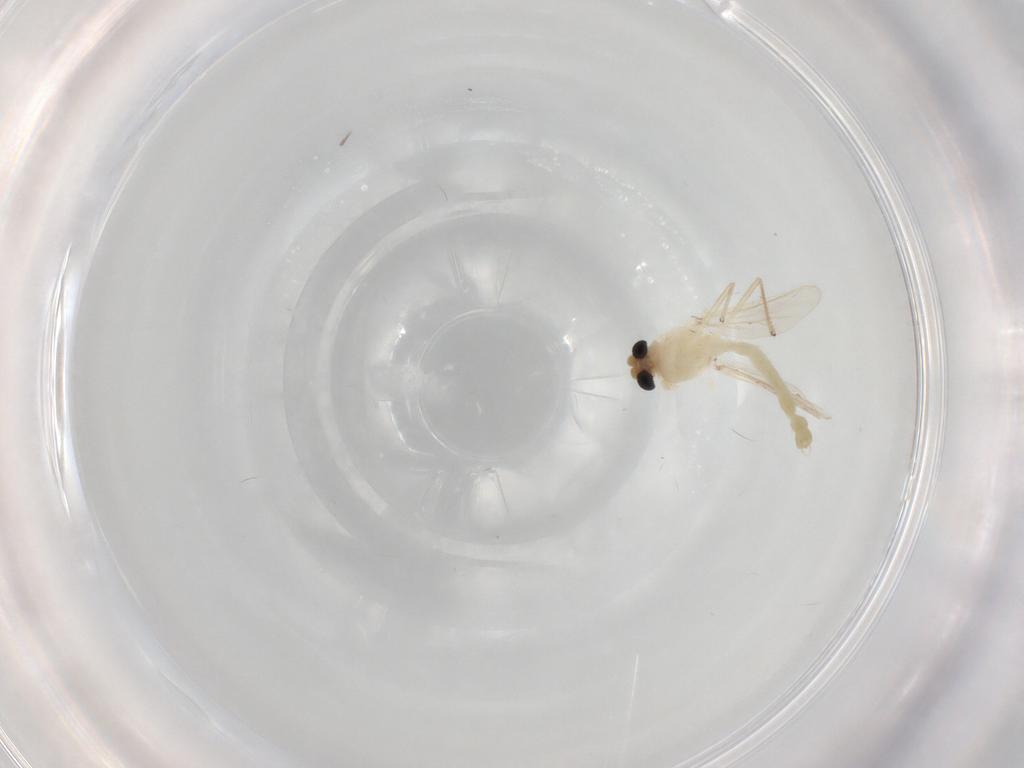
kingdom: Animalia
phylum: Arthropoda
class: Insecta
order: Diptera
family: Chironomidae
